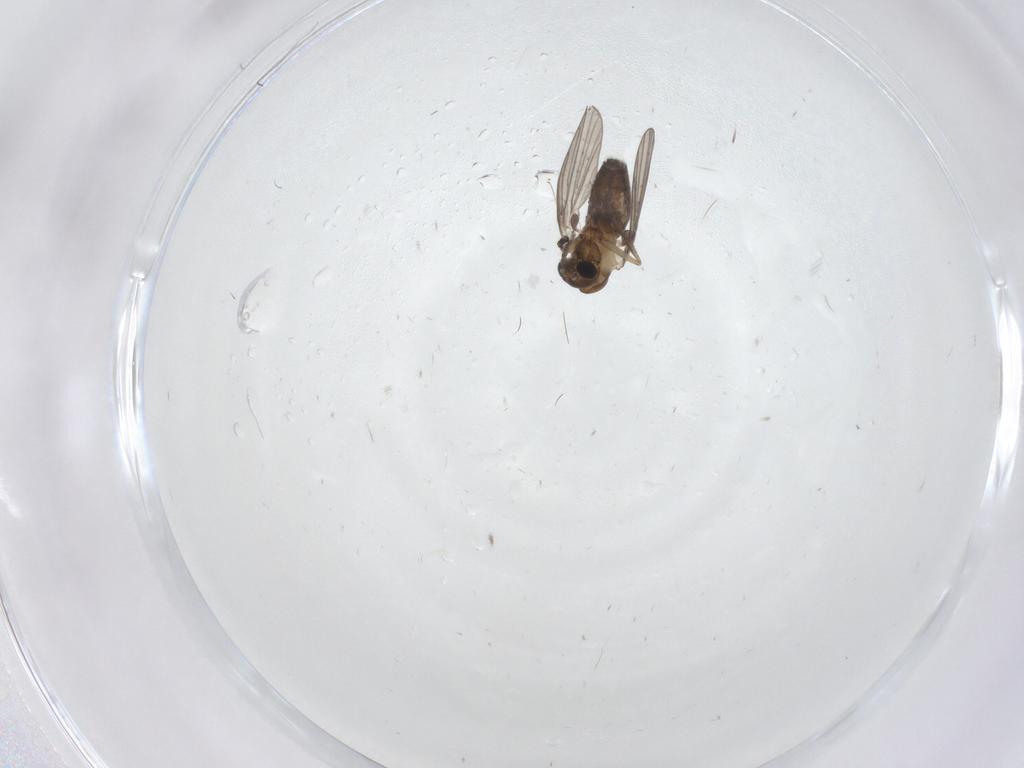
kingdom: Animalia
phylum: Arthropoda
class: Insecta
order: Diptera
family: Psychodidae
